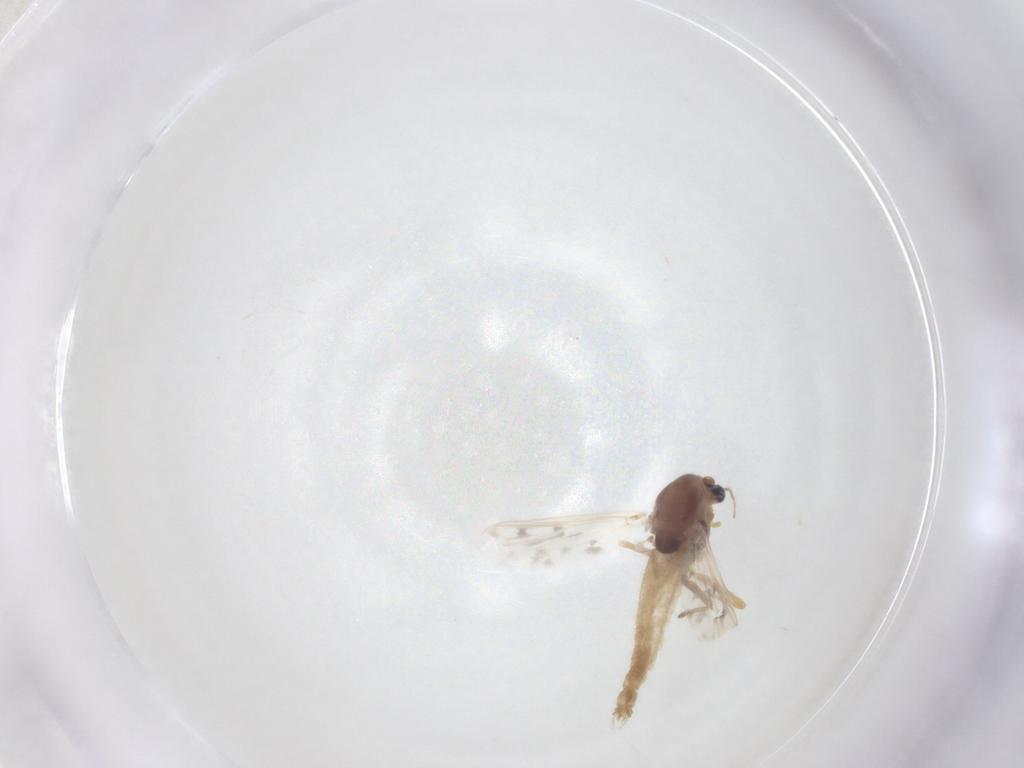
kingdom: Animalia
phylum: Arthropoda
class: Insecta
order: Diptera
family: Chironomidae
